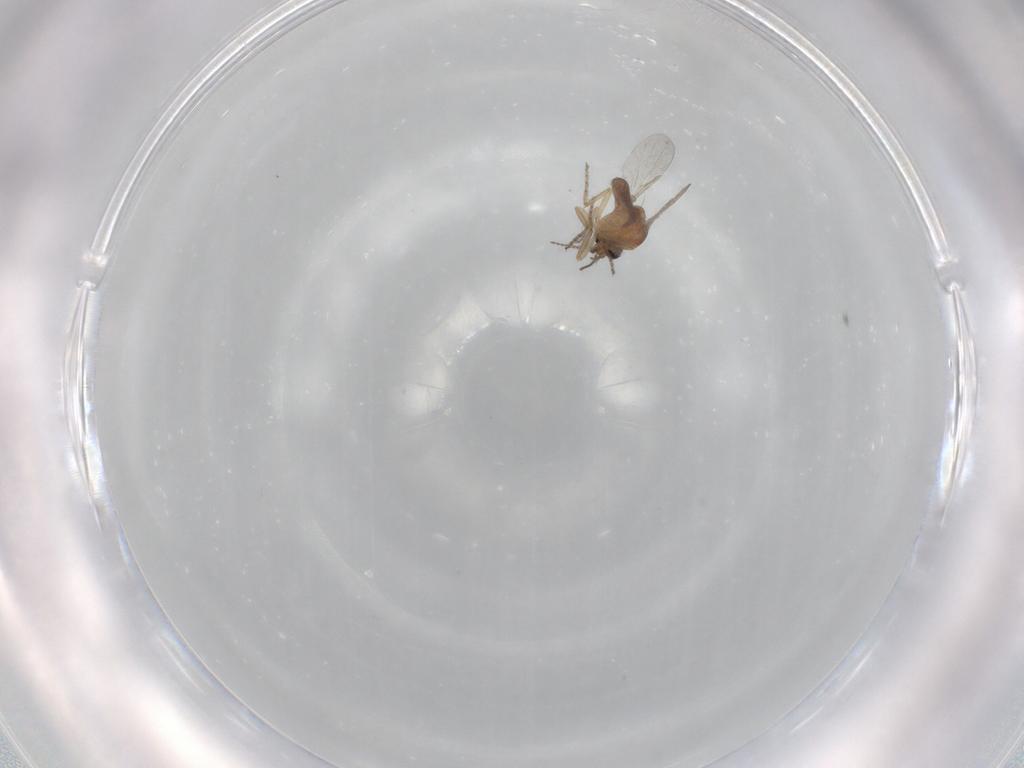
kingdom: Animalia
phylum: Arthropoda
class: Insecta
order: Diptera
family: Ceratopogonidae
